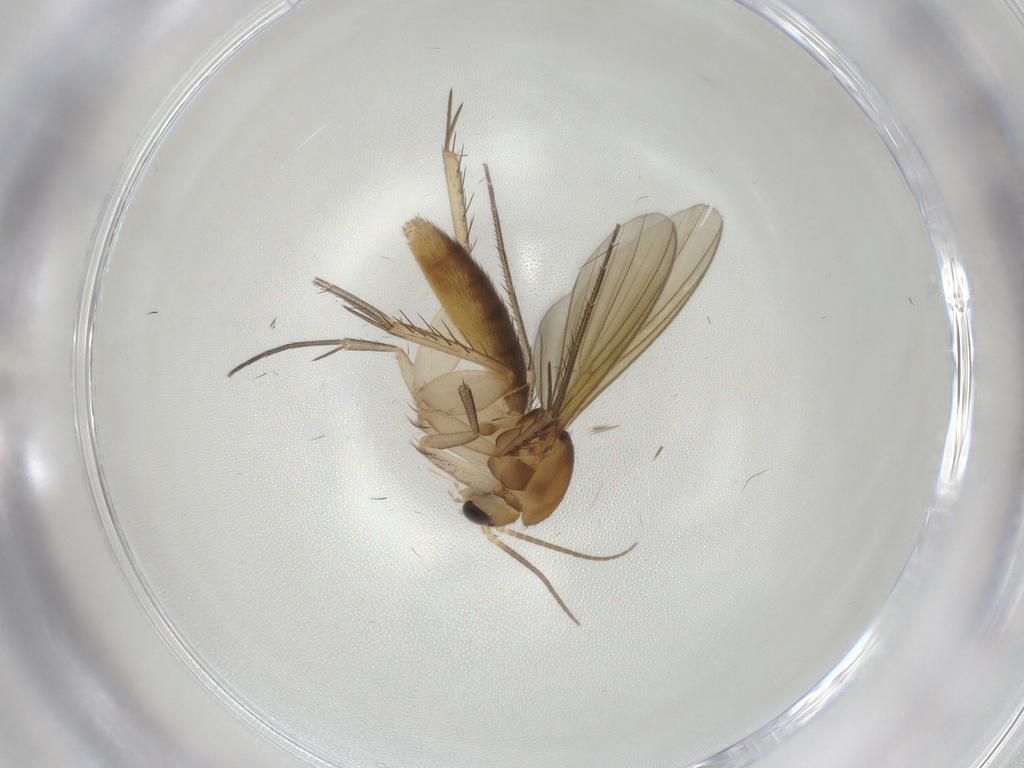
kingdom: Animalia
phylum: Arthropoda
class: Insecta
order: Diptera
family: Mycetophilidae
